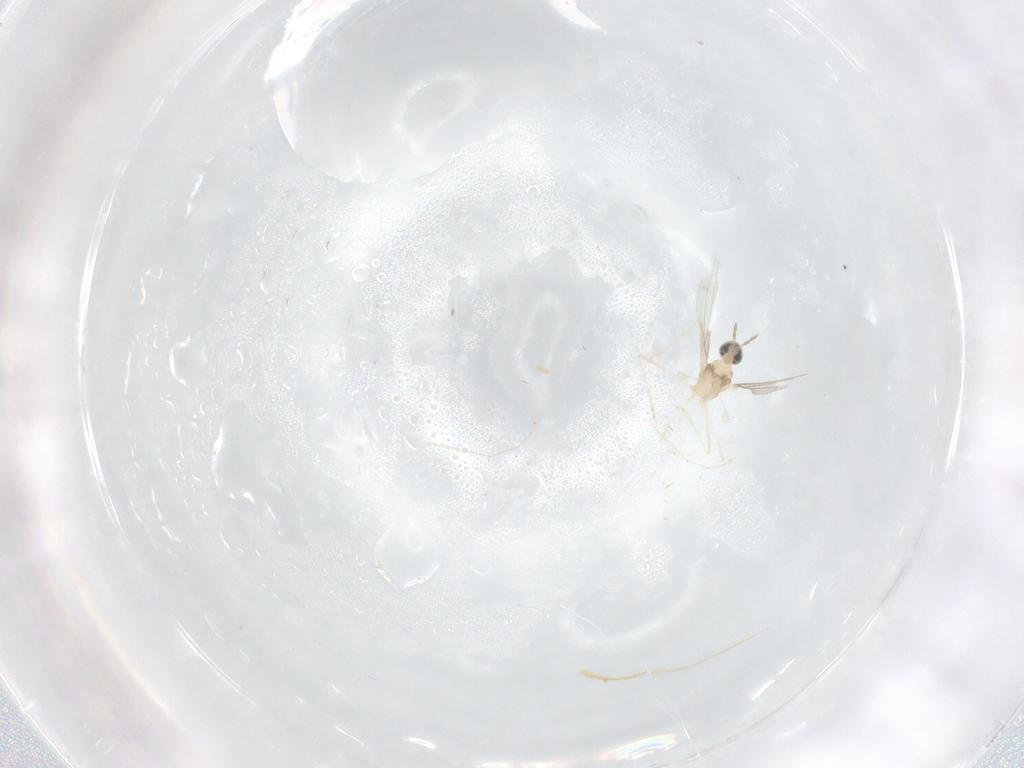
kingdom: Animalia
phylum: Arthropoda
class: Insecta
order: Diptera
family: Cecidomyiidae
